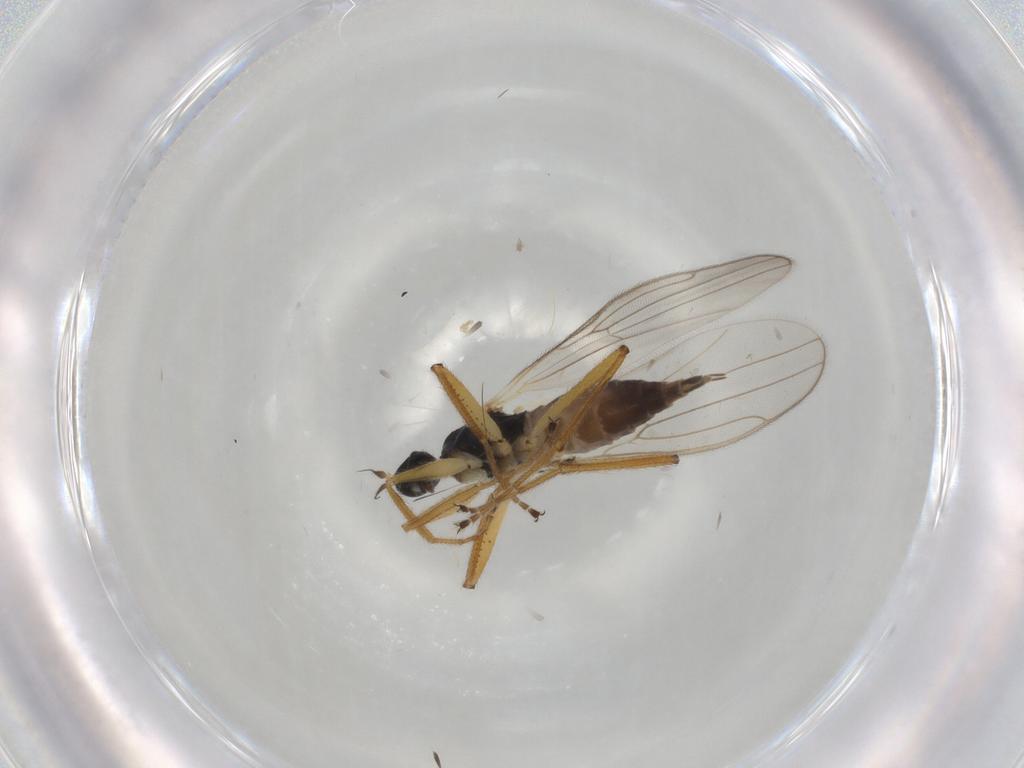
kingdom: Animalia
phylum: Arthropoda
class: Insecta
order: Diptera
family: Hybotidae
